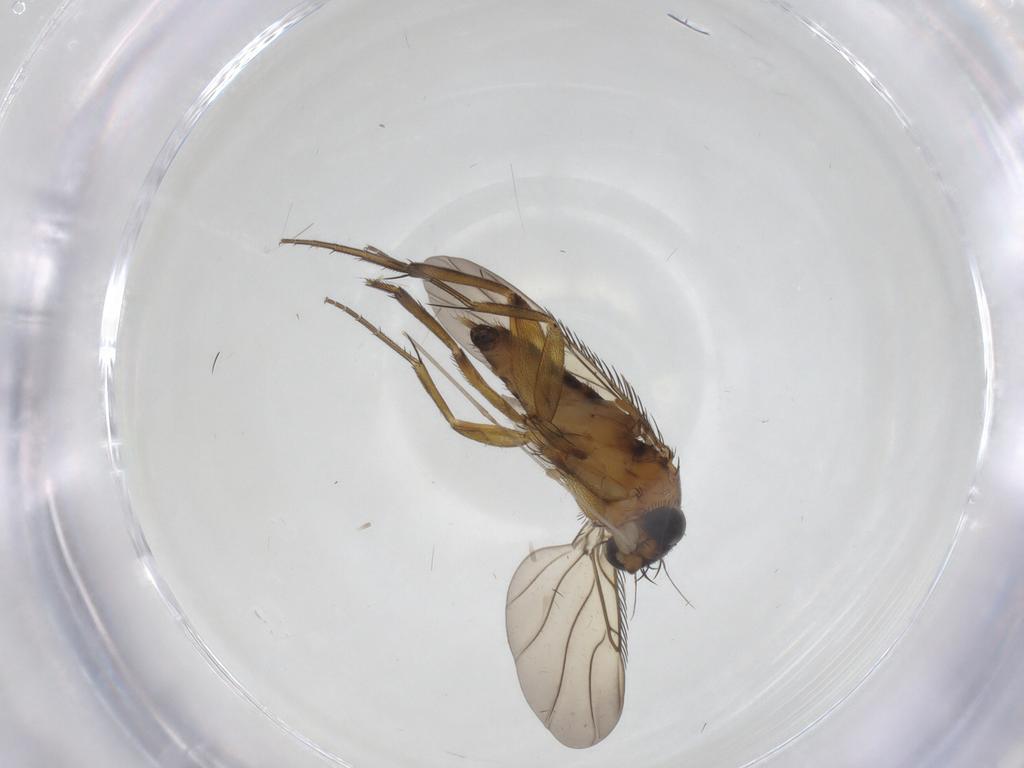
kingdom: Animalia
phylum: Arthropoda
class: Insecta
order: Diptera
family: Phoridae
